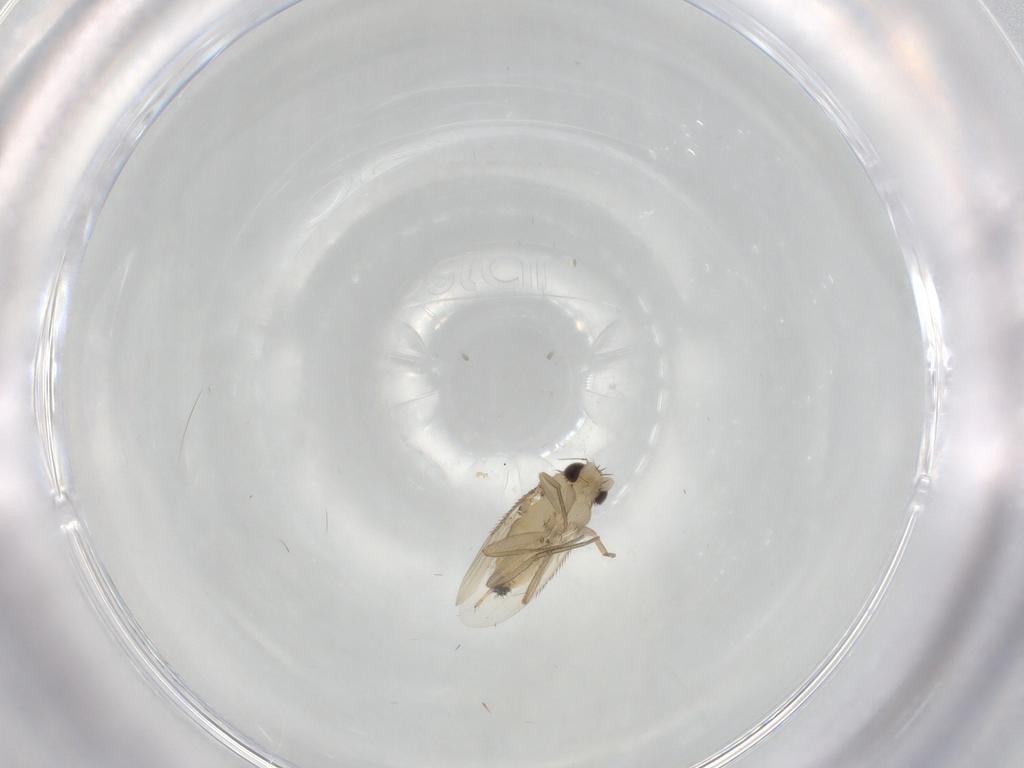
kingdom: Animalia
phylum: Arthropoda
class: Insecta
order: Diptera
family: Phoridae
